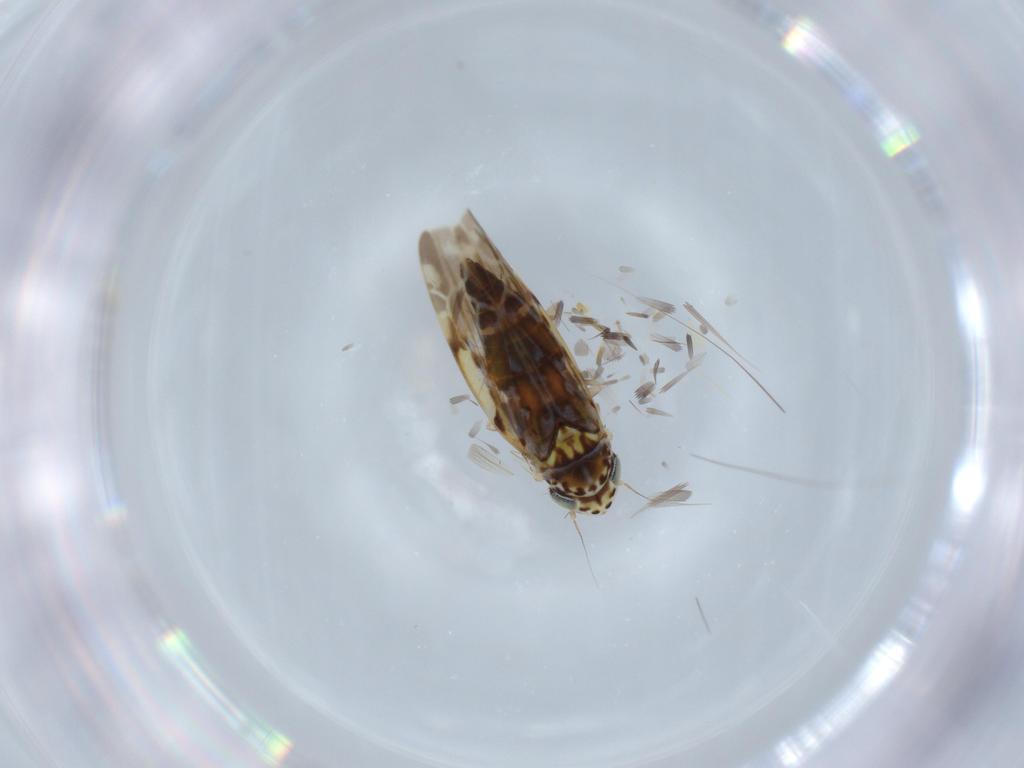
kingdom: Animalia
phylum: Arthropoda
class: Insecta
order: Hemiptera
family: Cicadellidae
